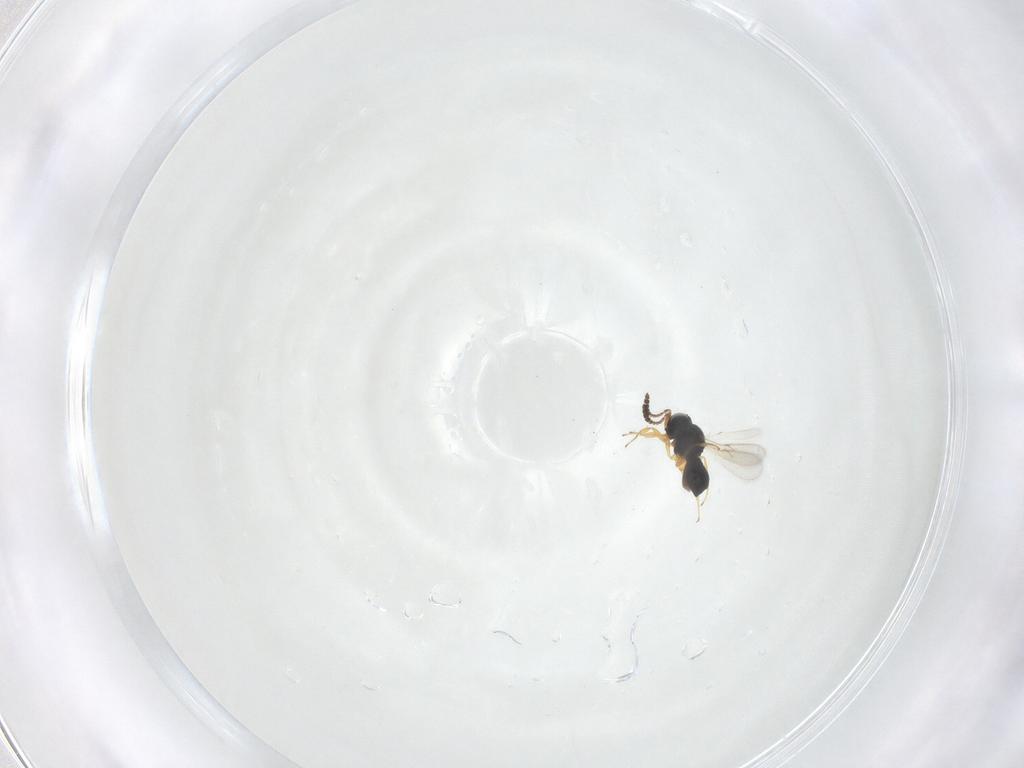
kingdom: Animalia
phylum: Arthropoda
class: Insecta
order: Hymenoptera
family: Scelionidae
